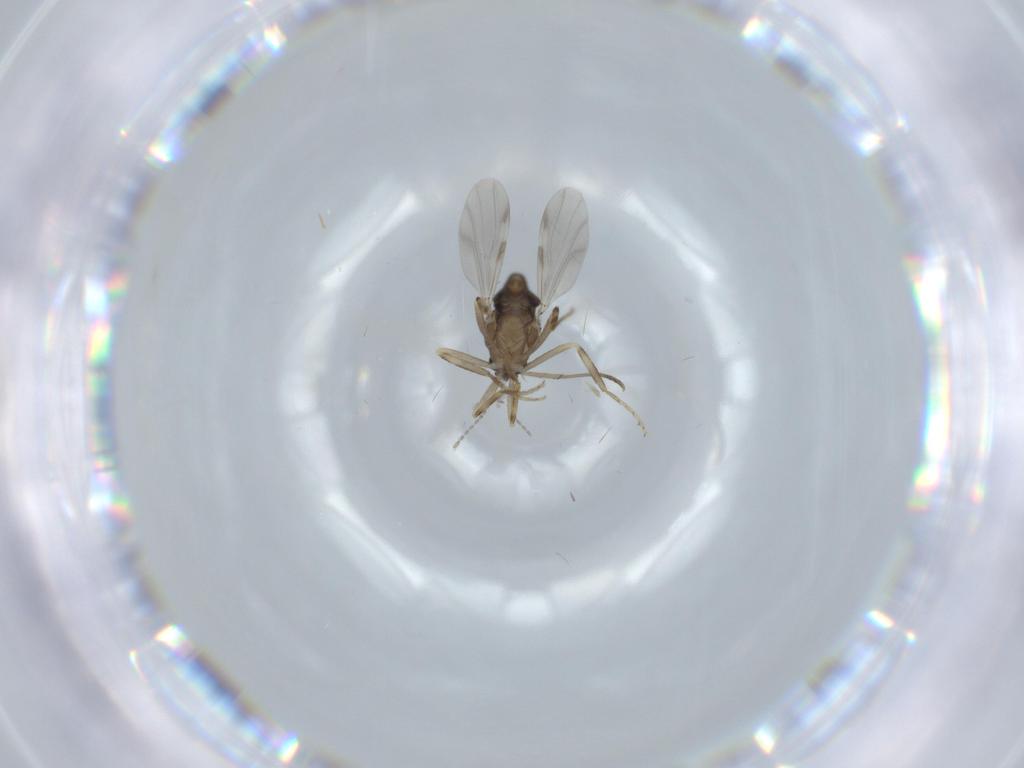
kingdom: Animalia
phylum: Arthropoda
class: Insecta
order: Diptera
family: Ceratopogonidae
